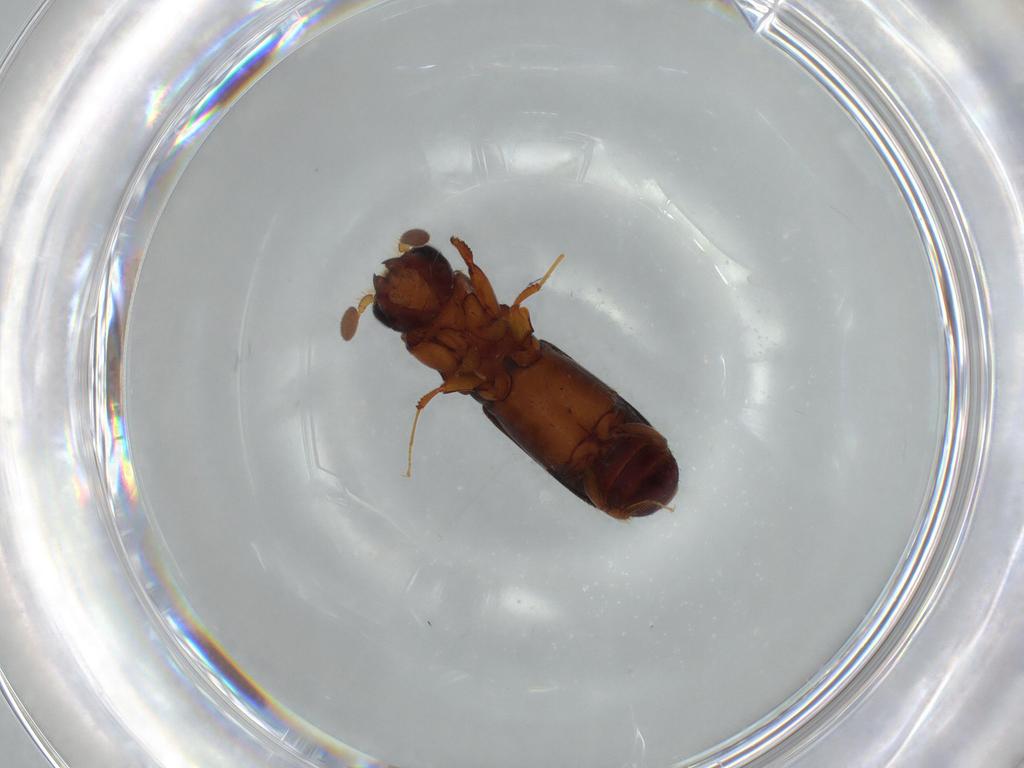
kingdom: Animalia
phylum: Arthropoda
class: Insecta
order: Coleoptera
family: Curculionidae
